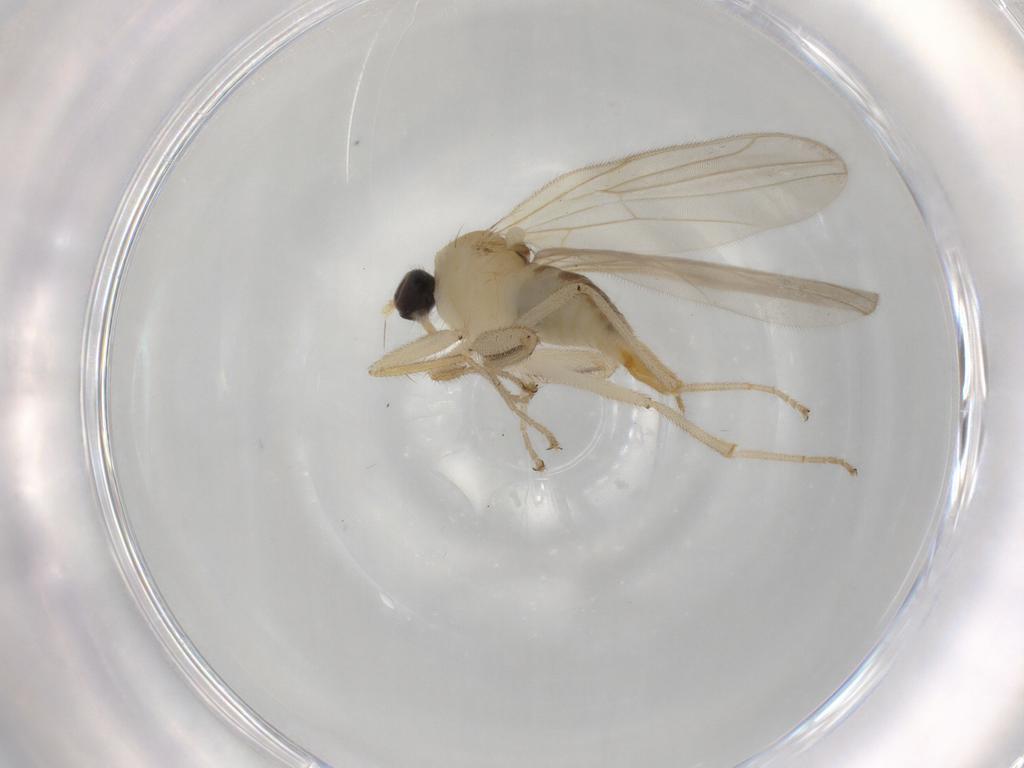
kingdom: Animalia
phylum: Arthropoda
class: Insecta
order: Diptera
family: Hybotidae
